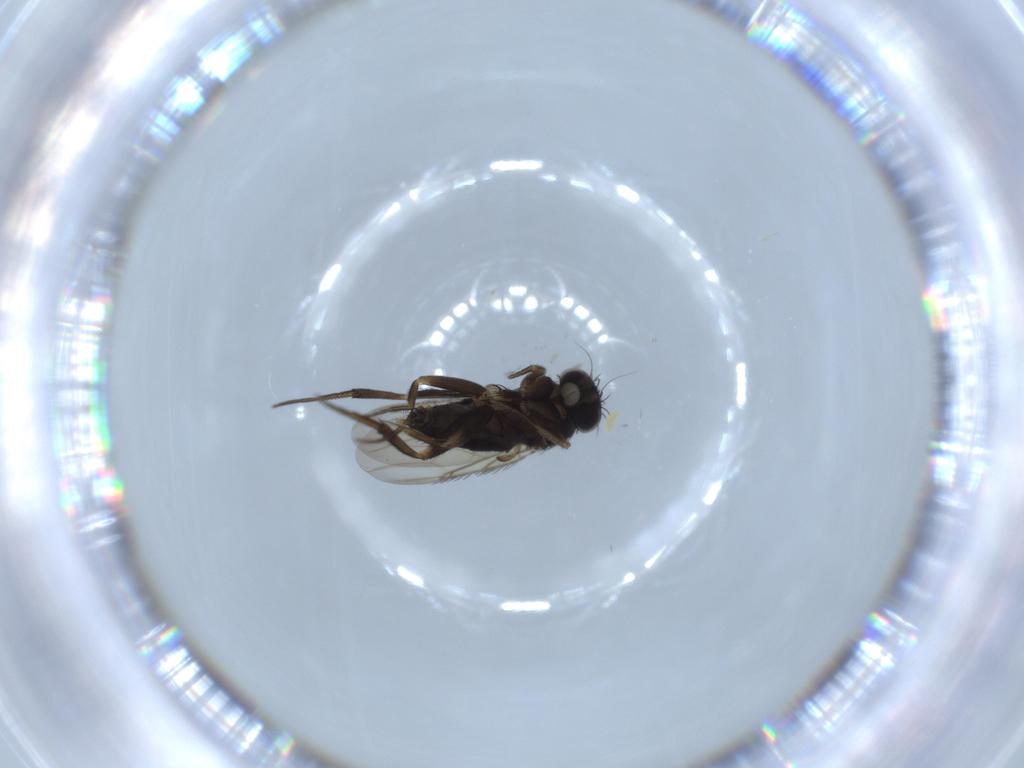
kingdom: Animalia
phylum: Arthropoda
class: Insecta
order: Diptera
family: Phoridae
